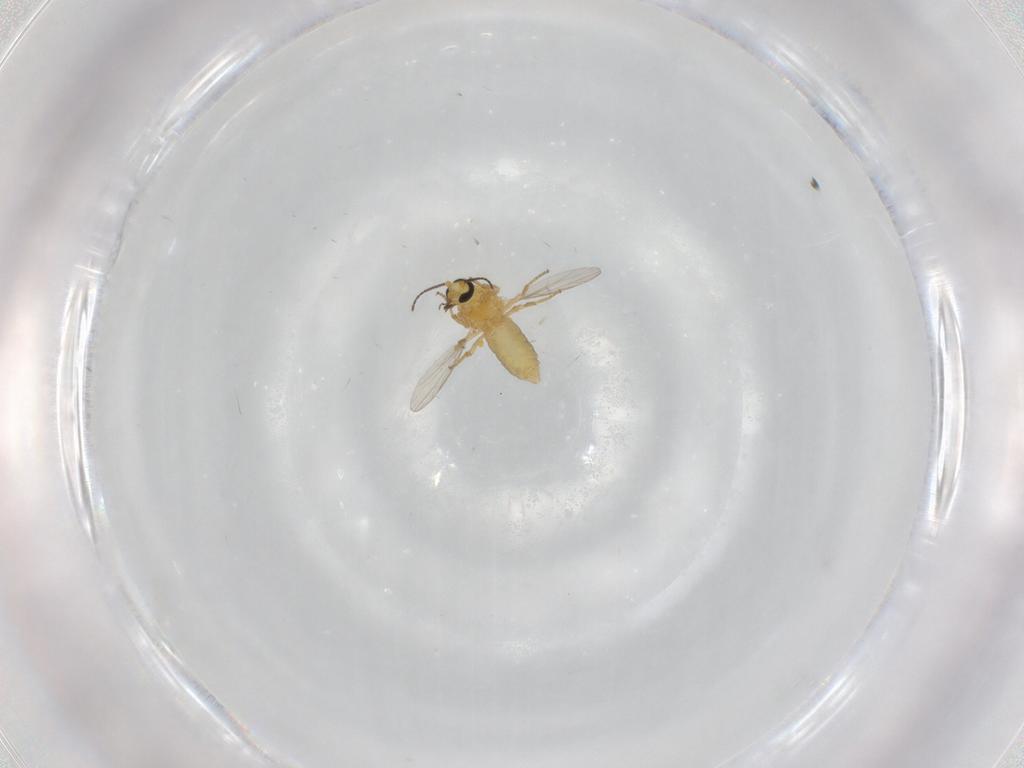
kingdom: Animalia
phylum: Arthropoda
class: Insecta
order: Diptera
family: Ceratopogonidae
